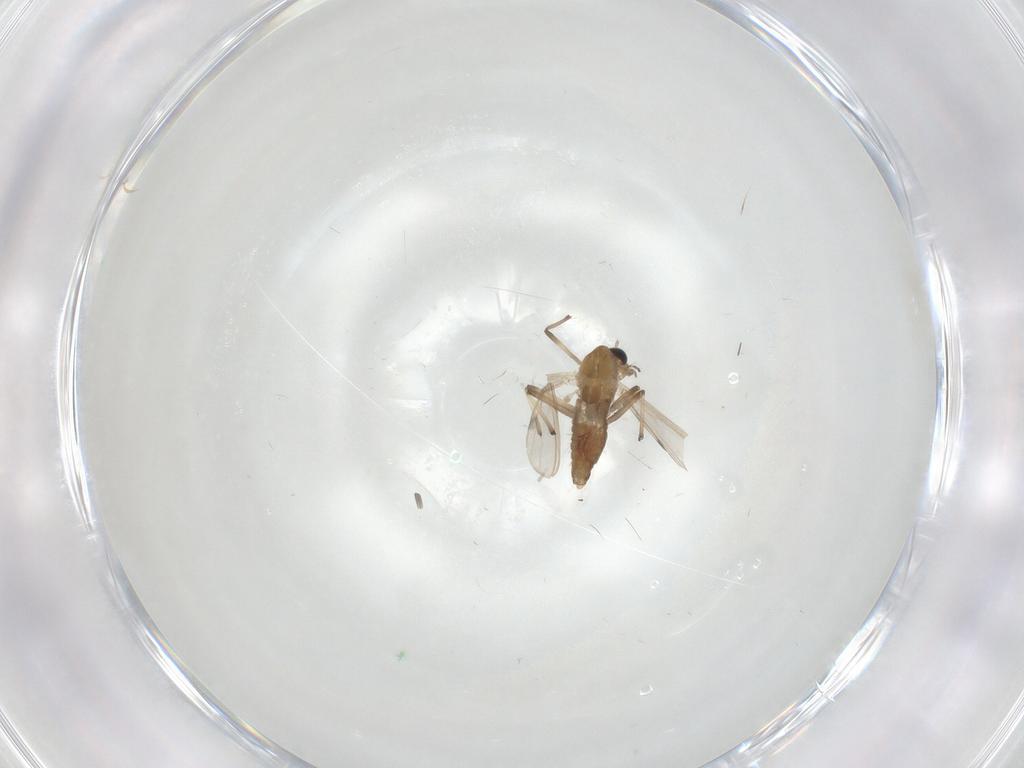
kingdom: Animalia
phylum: Arthropoda
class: Insecta
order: Diptera
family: Chironomidae
